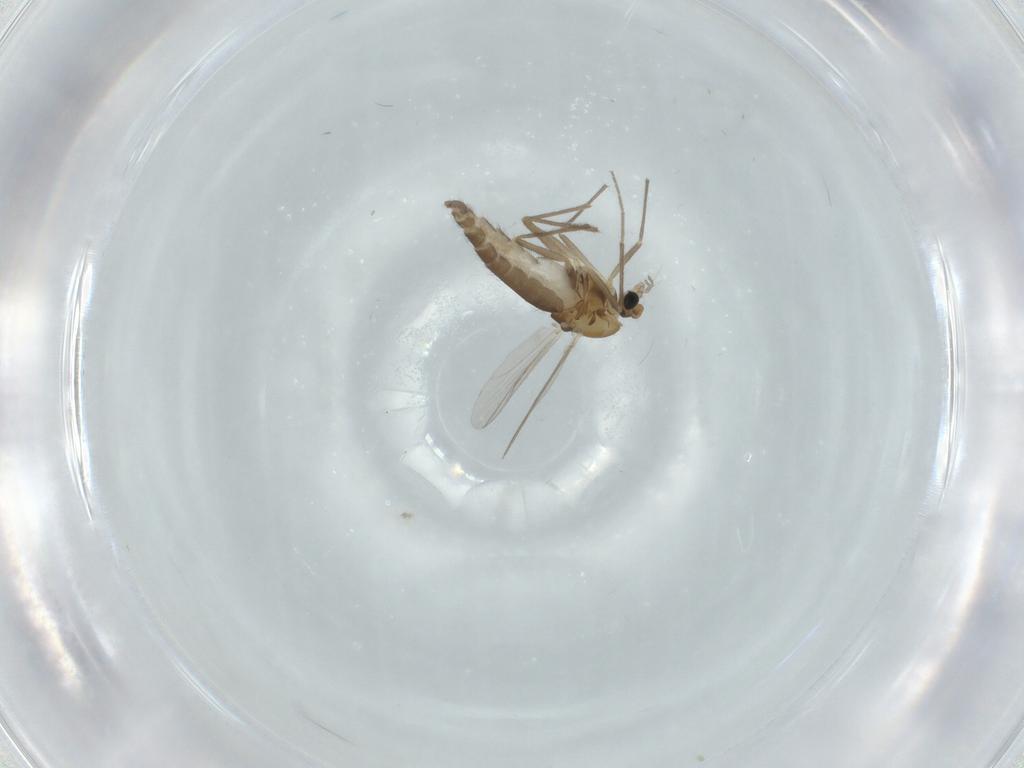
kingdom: Animalia
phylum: Arthropoda
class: Insecta
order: Diptera
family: Chironomidae
